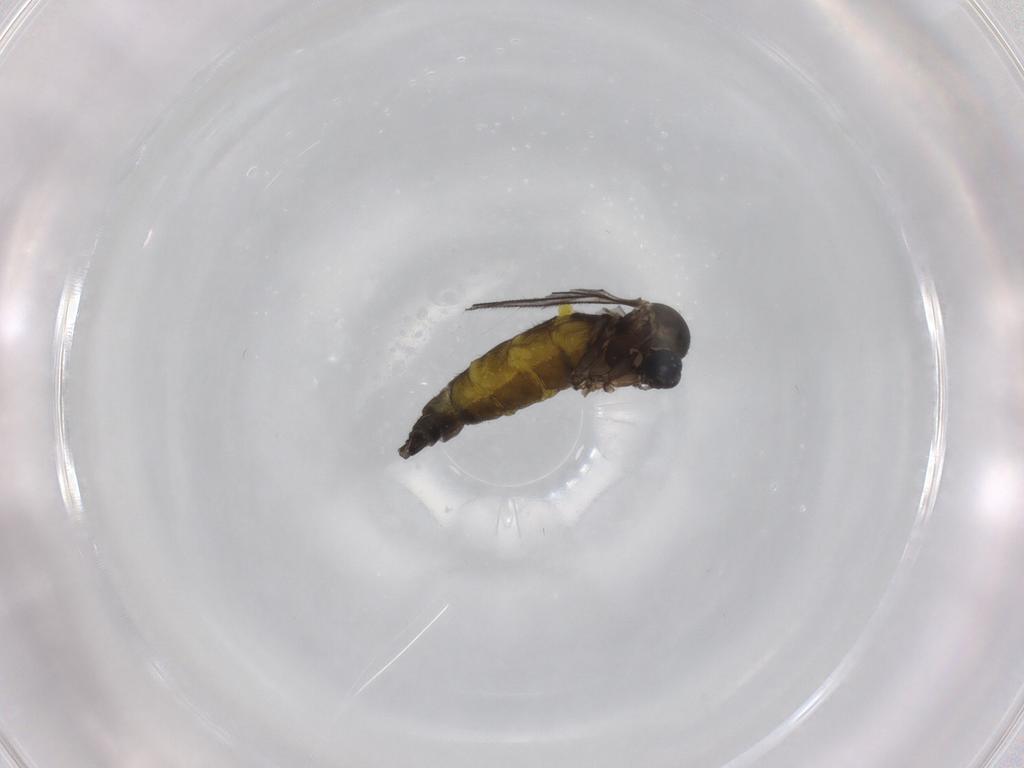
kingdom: Animalia
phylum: Arthropoda
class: Insecta
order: Diptera
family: Sciaridae
